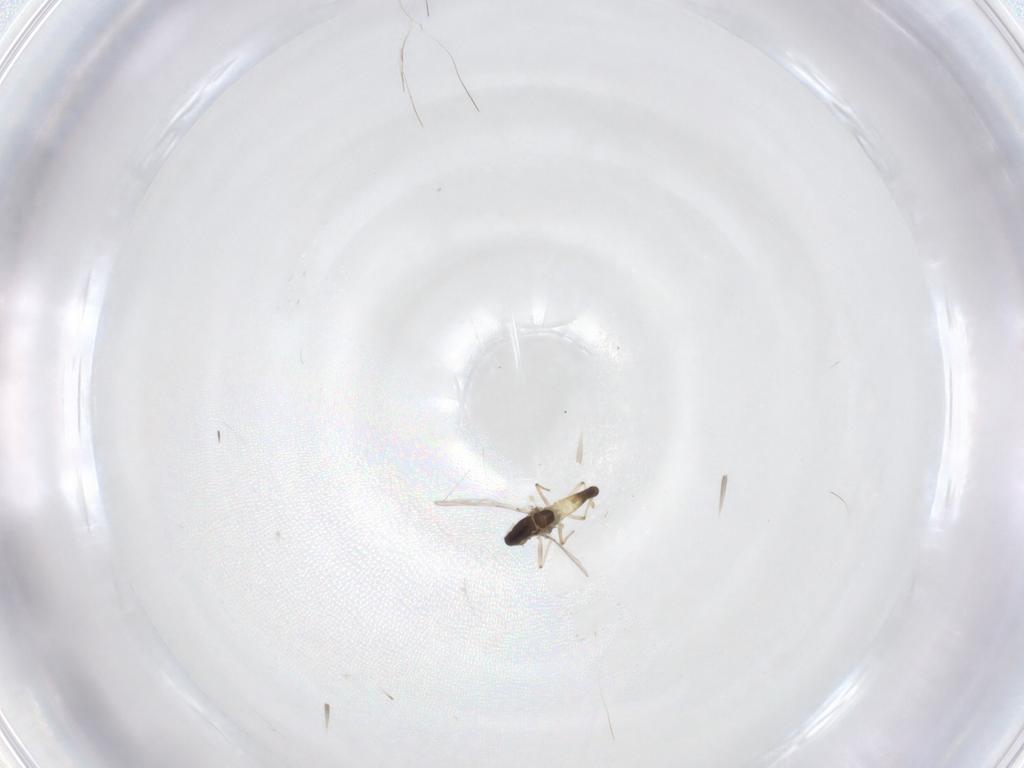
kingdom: Animalia
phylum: Arthropoda
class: Insecta
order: Diptera
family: Chironomidae
